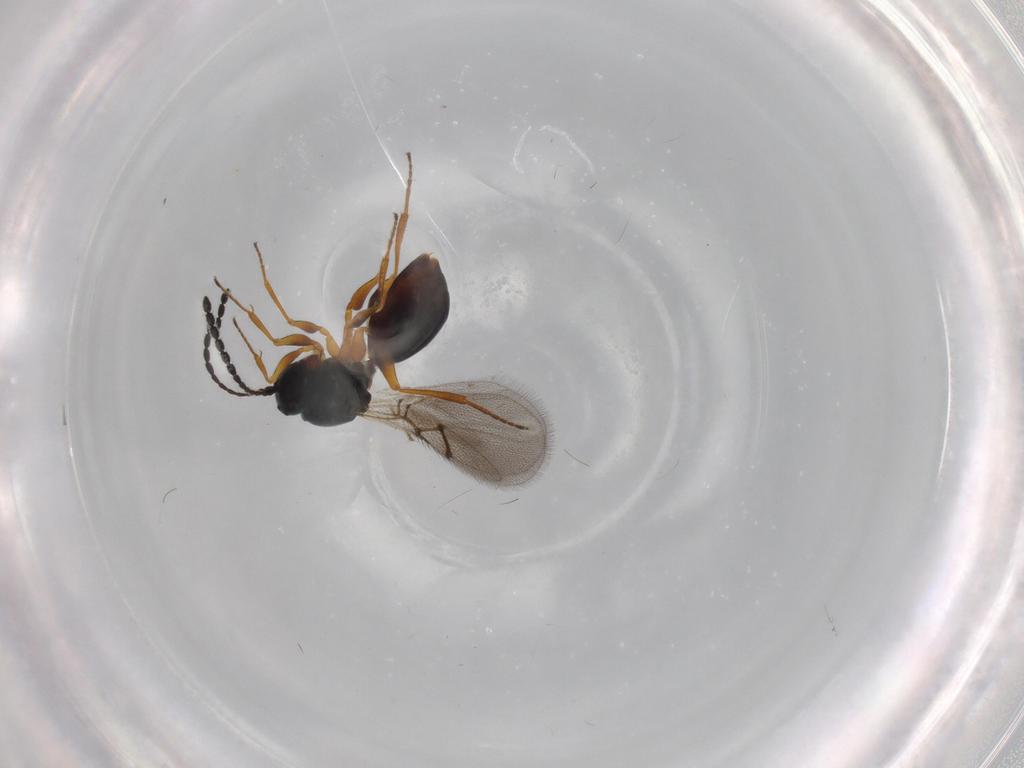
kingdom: Animalia
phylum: Arthropoda
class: Insecta
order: Hymenoptera
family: Figitidae
